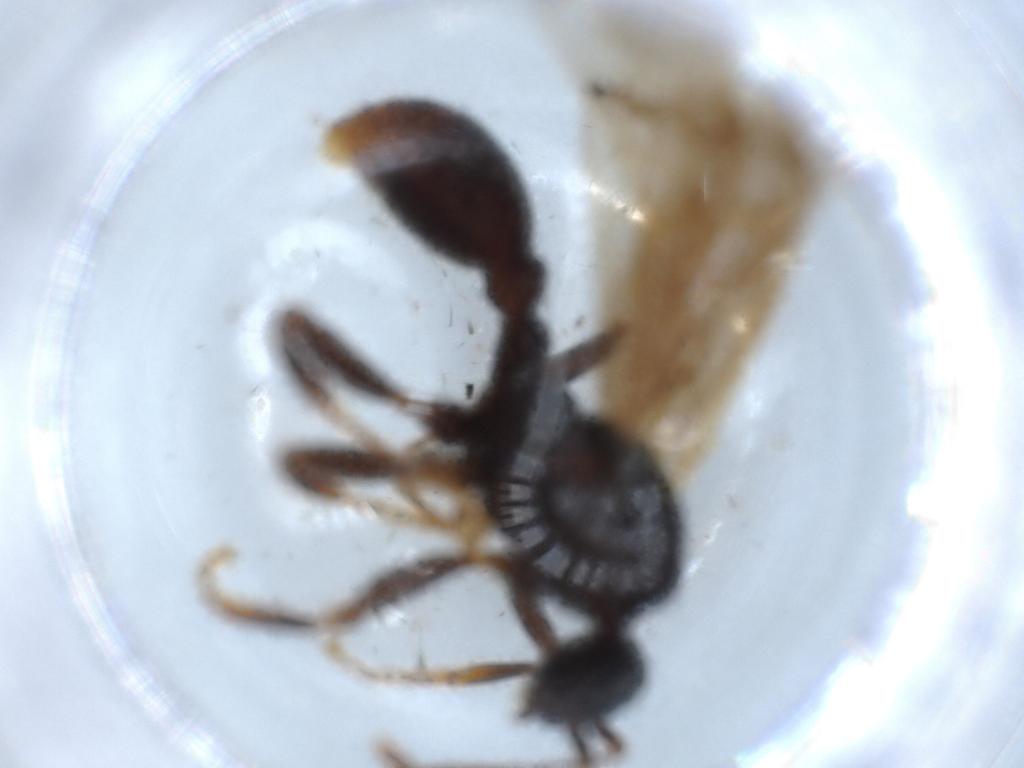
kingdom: Animalia
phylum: Arthropoda
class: Insecta
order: Hymenoptera
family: Formicidae
